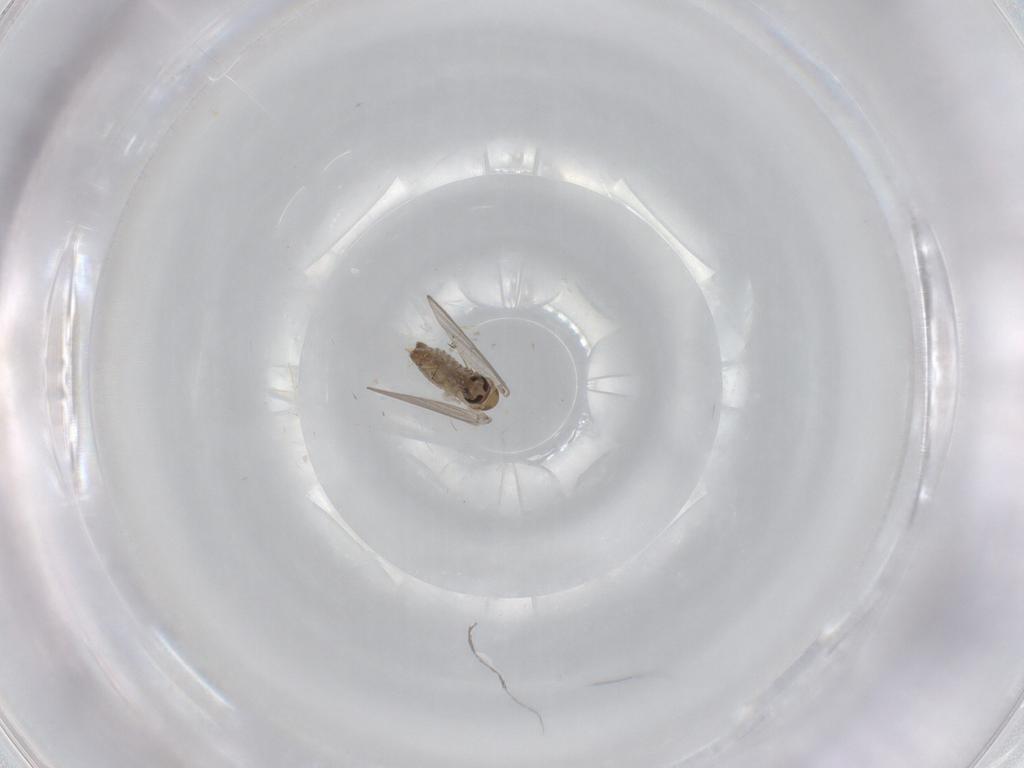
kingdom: Animalia
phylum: Arthropoda
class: Insecta
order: Diptera
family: Psychodidae
